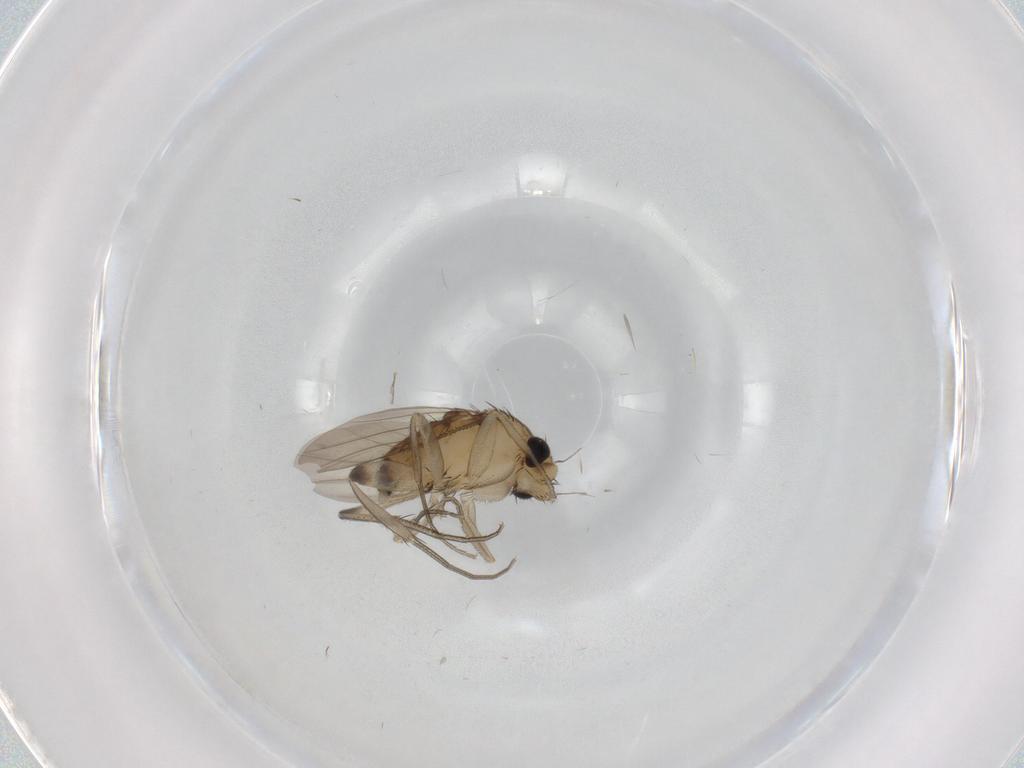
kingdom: Animalia
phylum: Arthropoda
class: Insecta
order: Diptera
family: Phoridae
